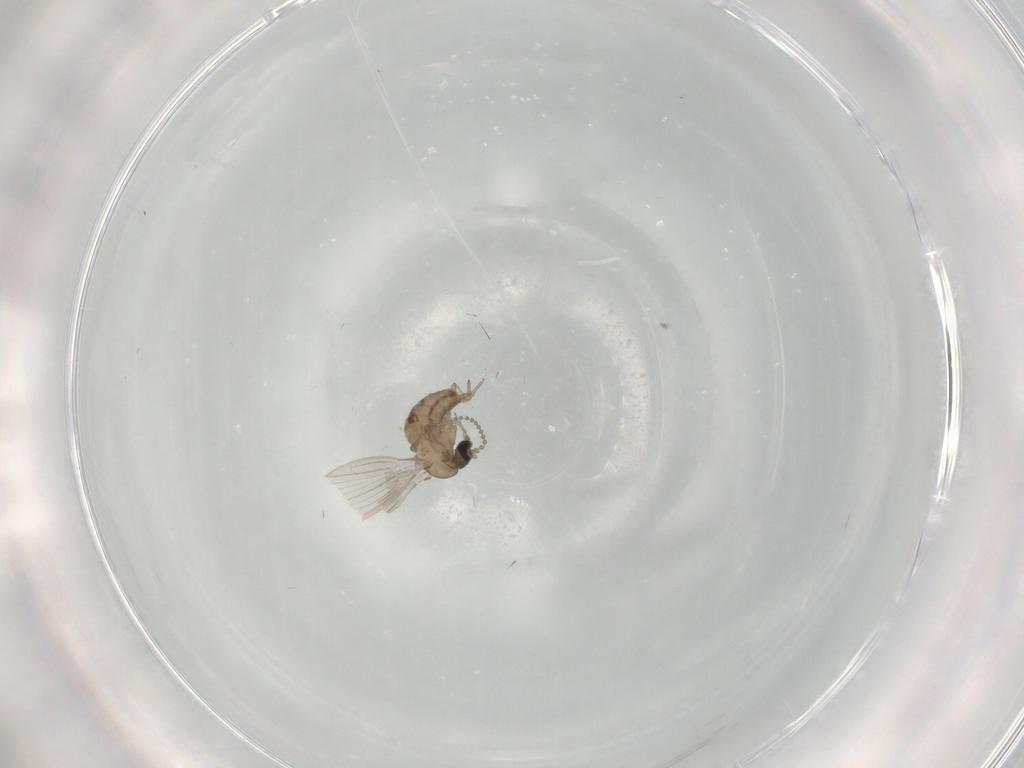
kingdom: Animalia
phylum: Arthropoda
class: Insecta
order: Diptera
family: Psychodidae
